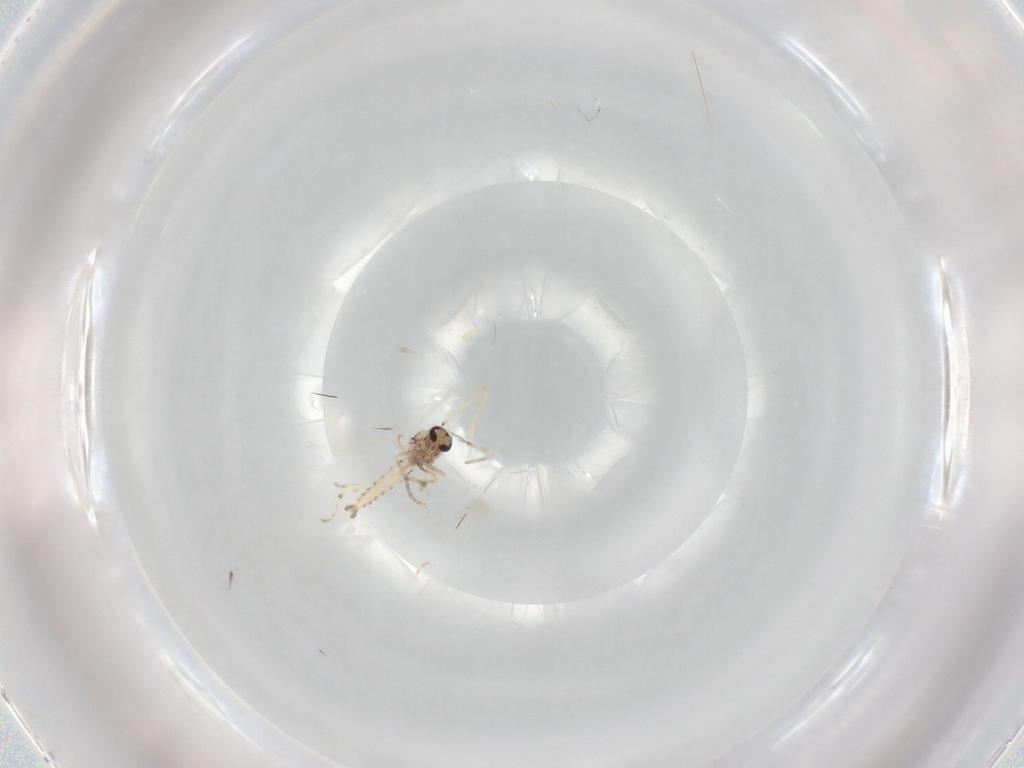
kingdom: Animalia
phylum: Arthropoda
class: Insecta
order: Diptera
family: Ceratopogonidae
